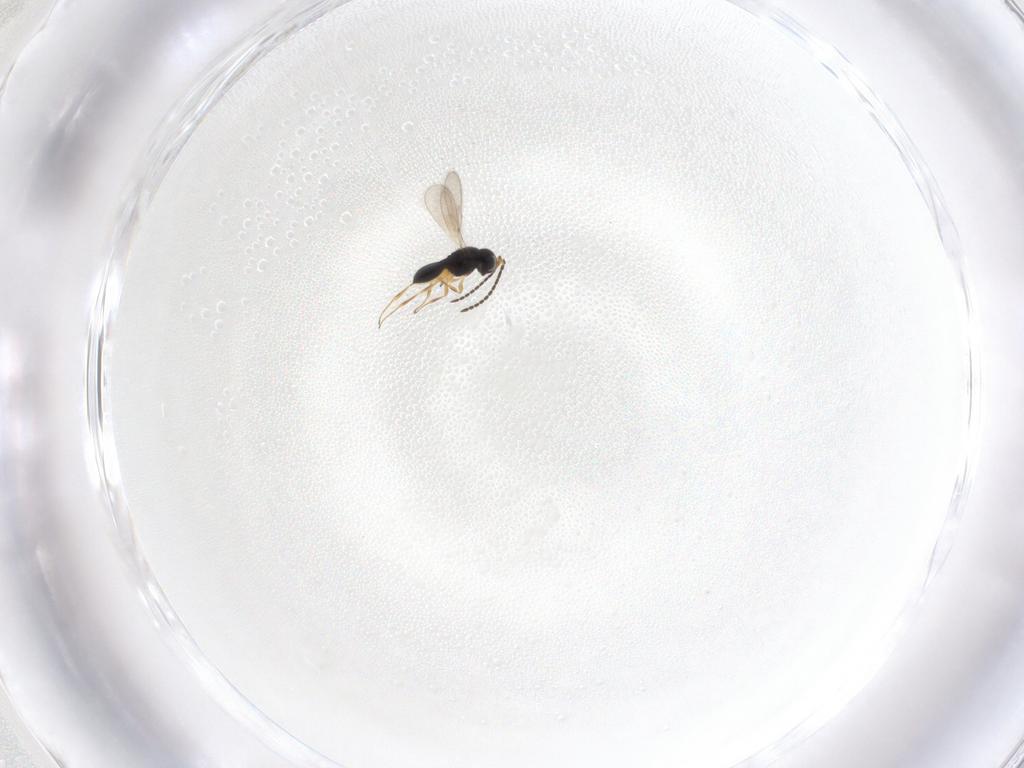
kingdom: Animalia
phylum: Arthropoda
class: Insecta
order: Hymenoptera
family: Scelionidae
